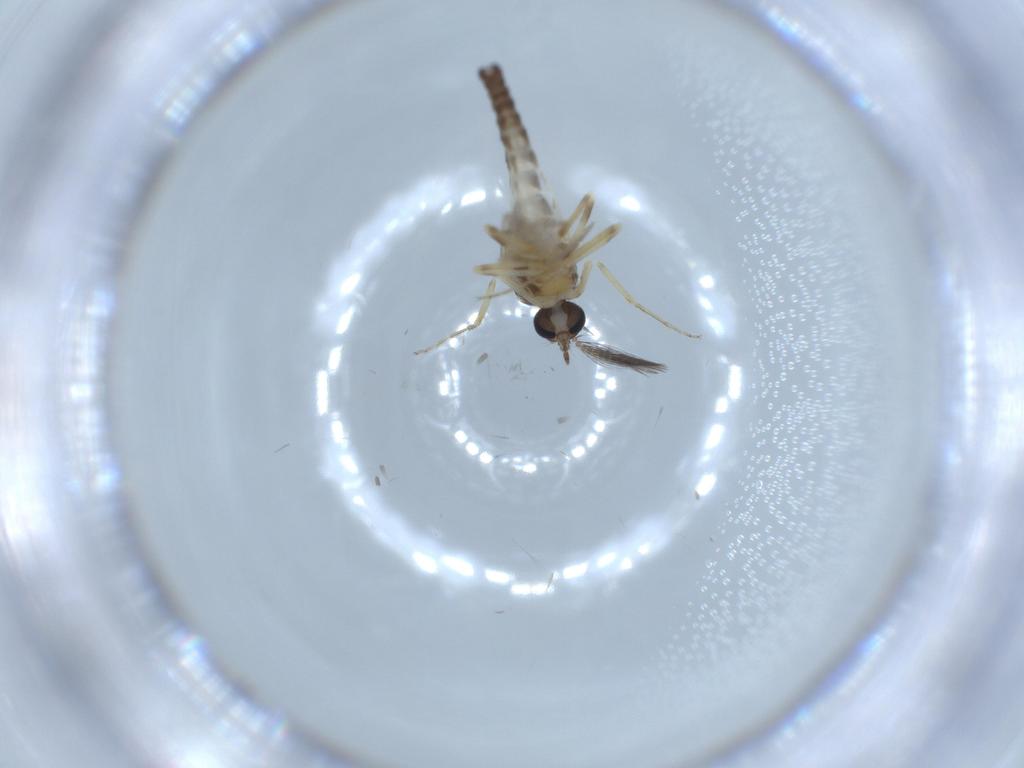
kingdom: Animalia
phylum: Arthropoda
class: Insecta
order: Diptera
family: Ceratopogonidae
